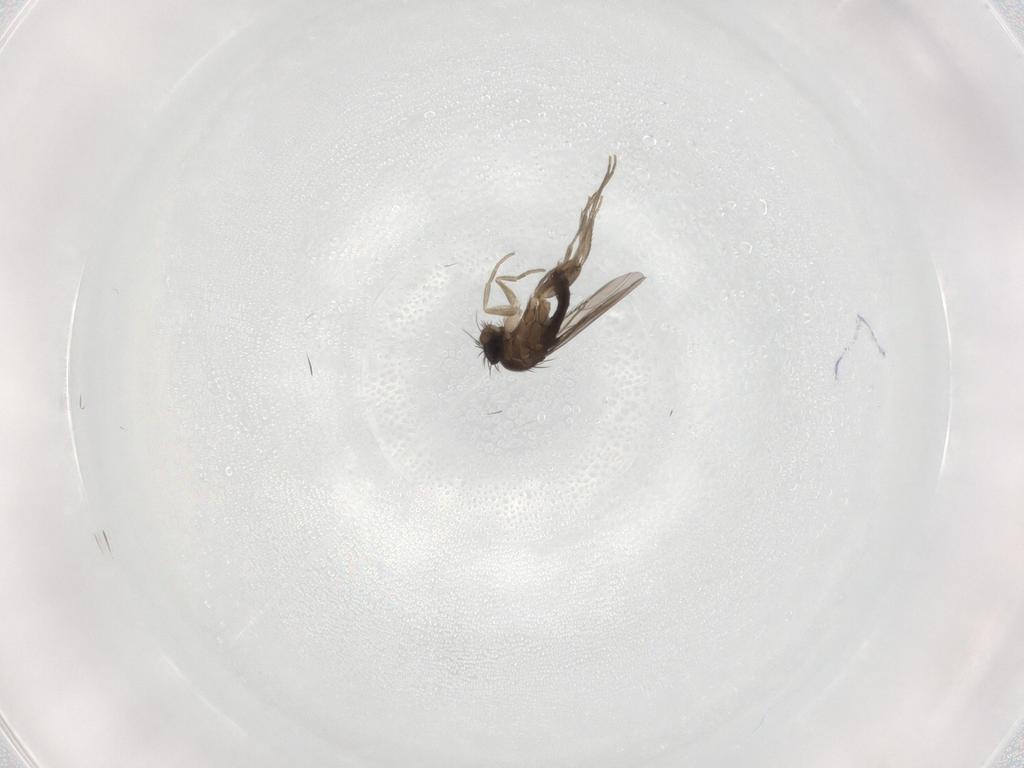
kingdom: Animalia
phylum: Arthropoda
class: Insecta
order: Diptera
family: Phoridae
